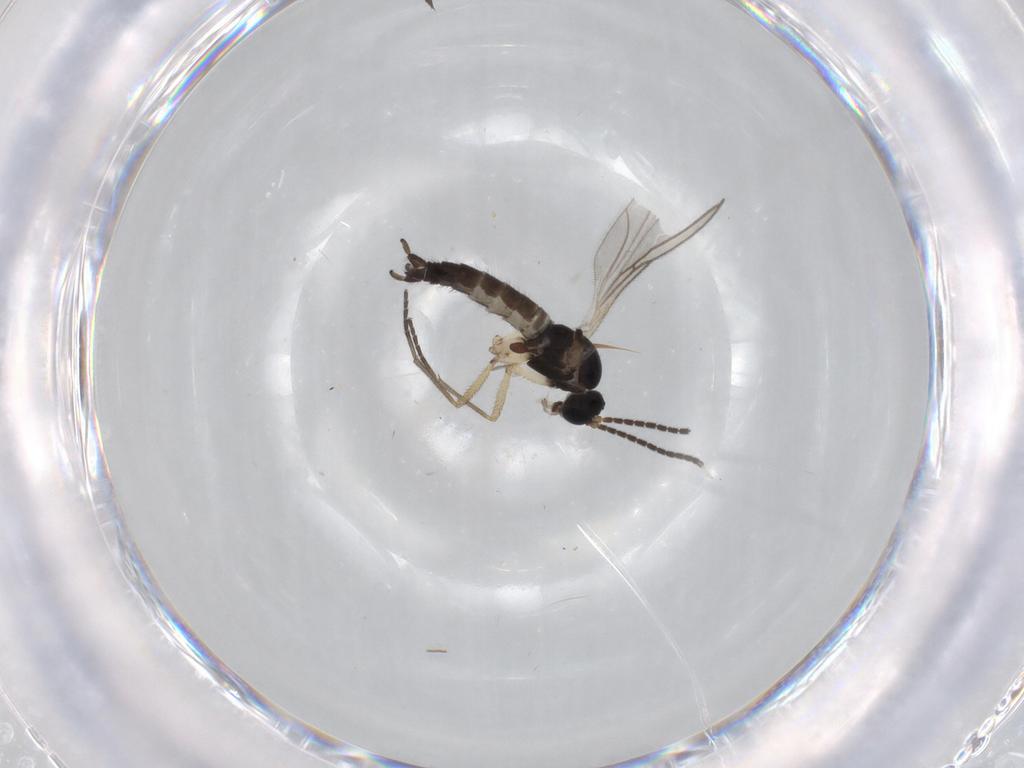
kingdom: Animalia
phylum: Arthropoda
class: Insecta
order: Diptera
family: Sciaridae
